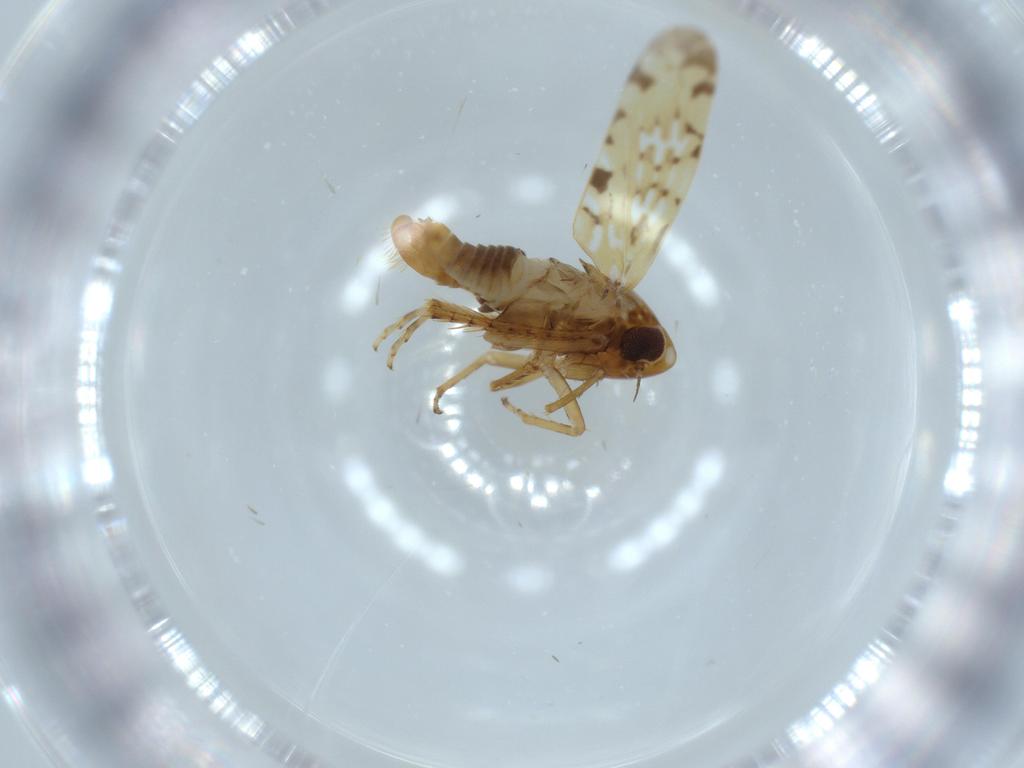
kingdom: Animalia
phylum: Arthropoda
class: Insecta
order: Hemiptera
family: Cicadellidae
